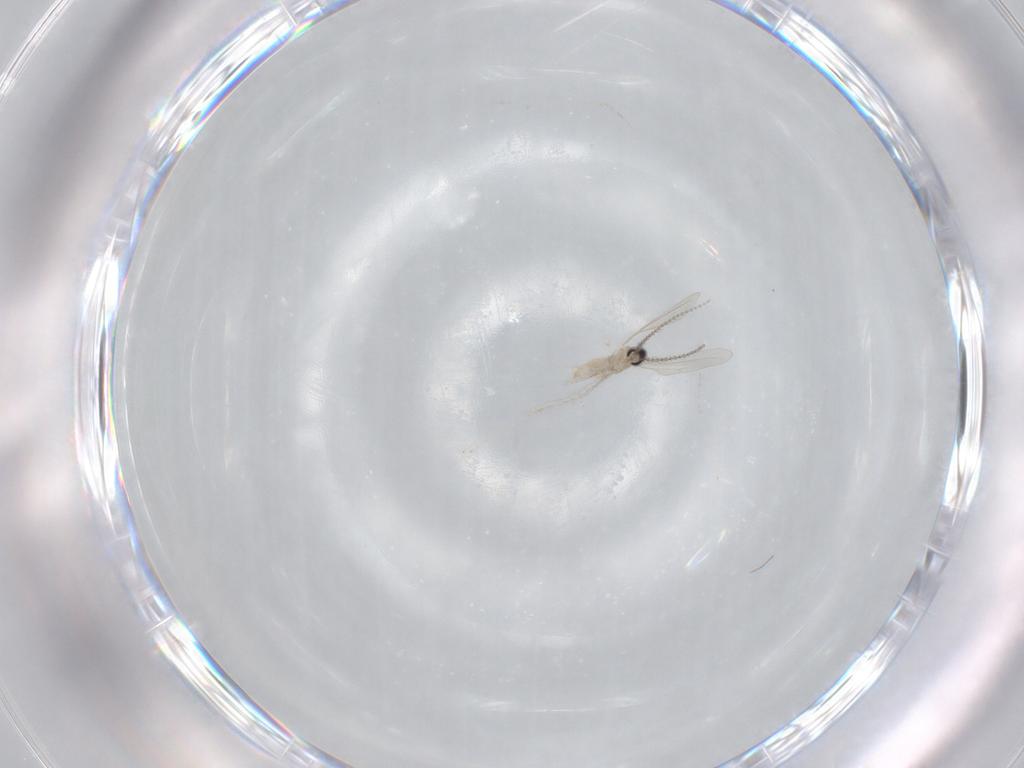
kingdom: Animalia
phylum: Arthropoda
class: Insecta
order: Diptera
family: Cecidomyiidae
